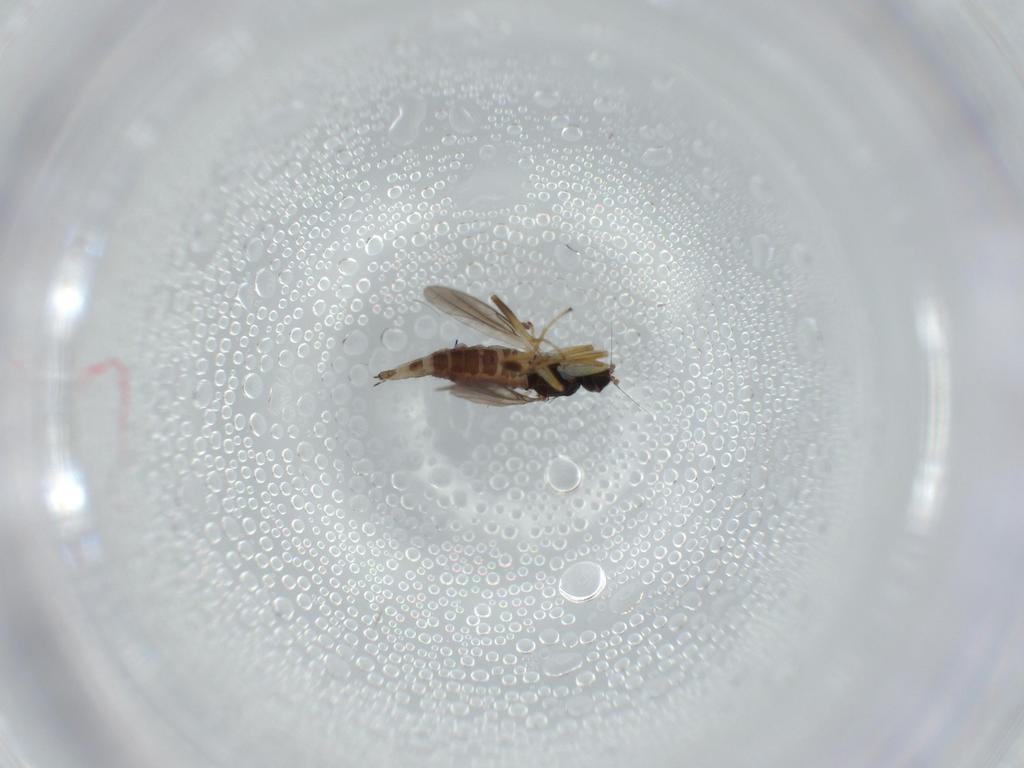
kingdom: Animalia
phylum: Arthropoda
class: Insecta
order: Diptera
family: Hybotidae
